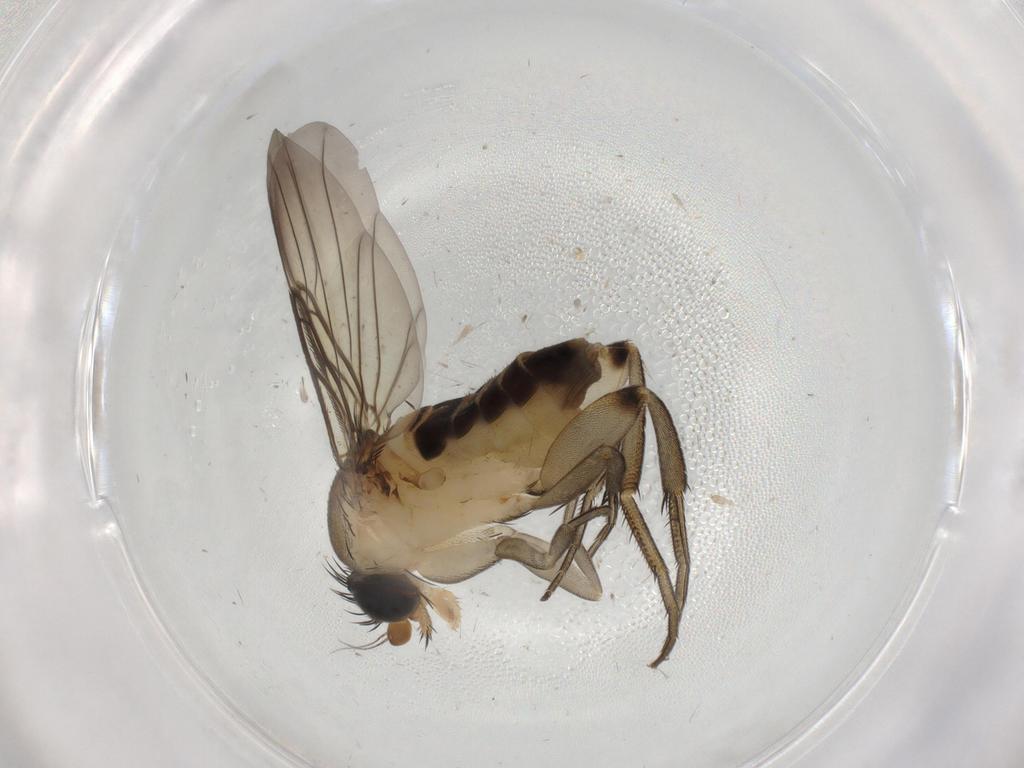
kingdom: Animalia
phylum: Arthropoda
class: Insecta
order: Diptera
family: Phoridae
